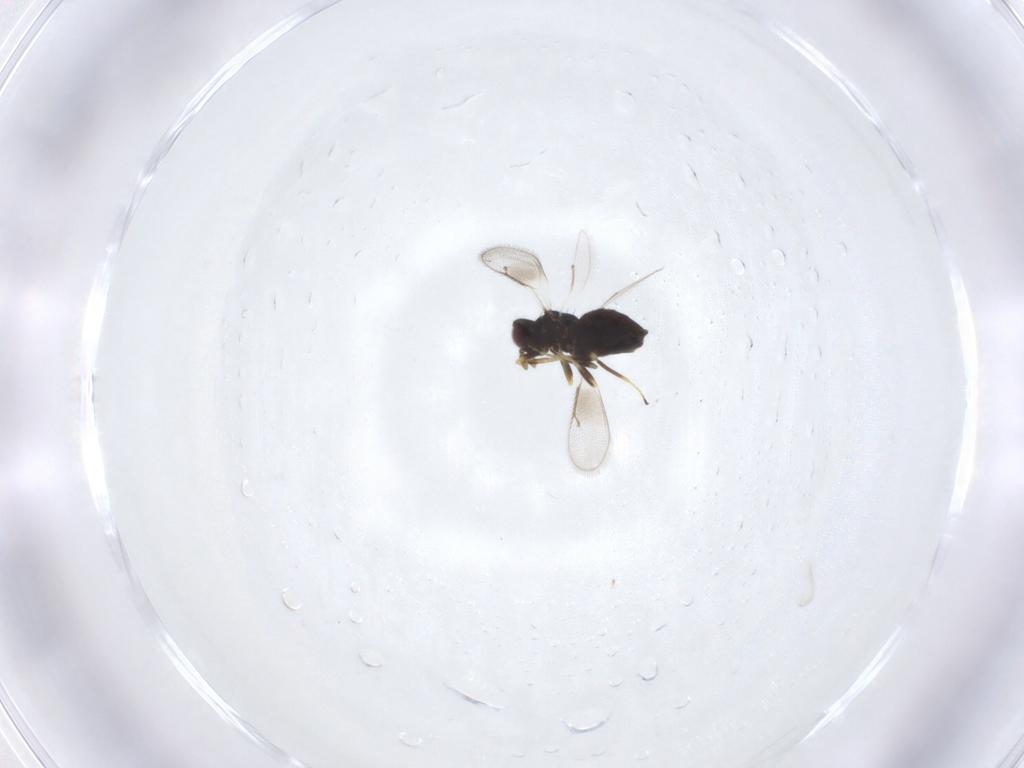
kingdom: Animalia
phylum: Arthropoda
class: Insecta
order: Hymenoptera
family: Eulophidae
